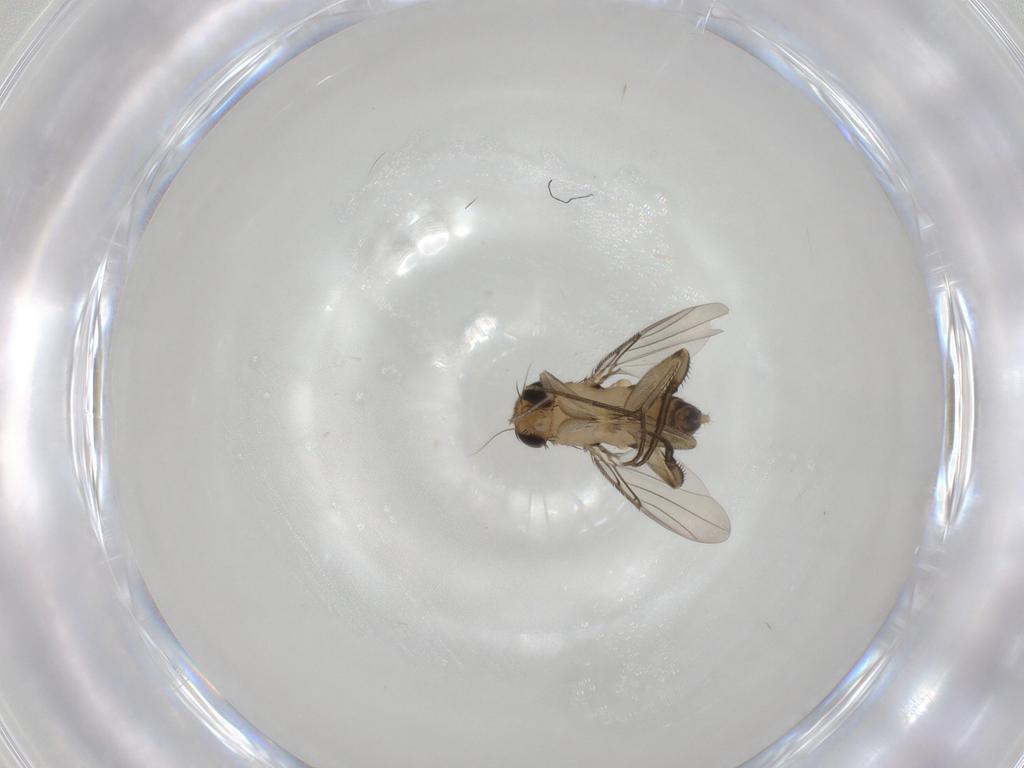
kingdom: Animalia
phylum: Arthropoda
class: Insecta
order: Diptera
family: Phoridae
